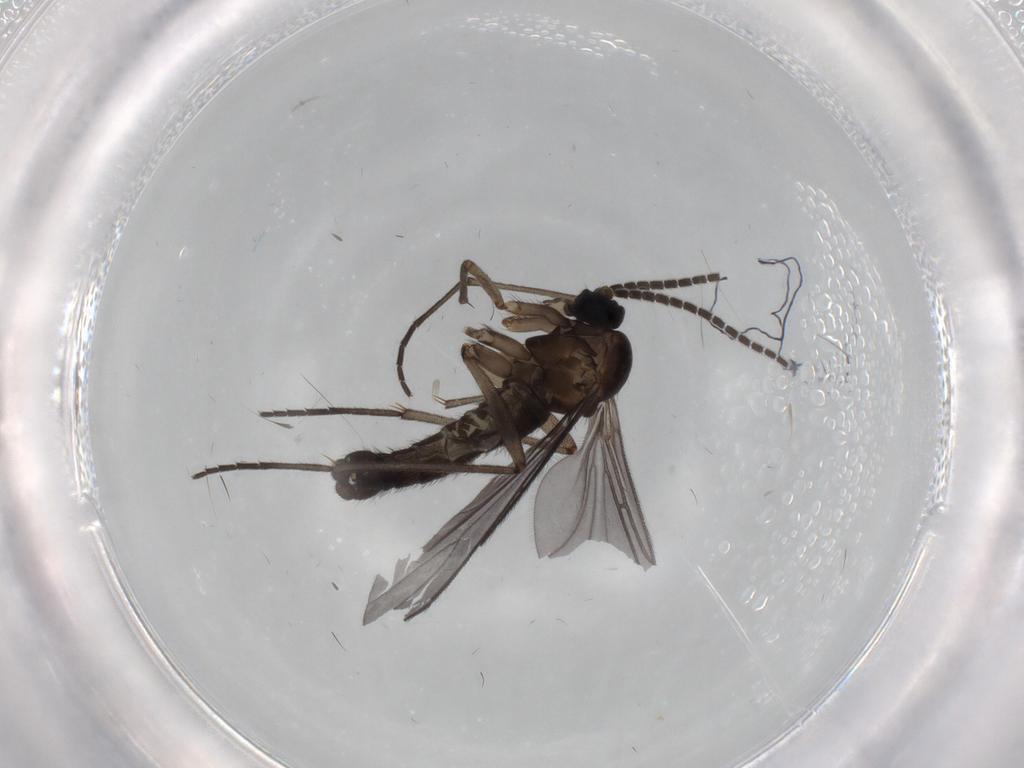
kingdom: Animalia
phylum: Arthropoda
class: Insecta
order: Diptera
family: Sciaridae
